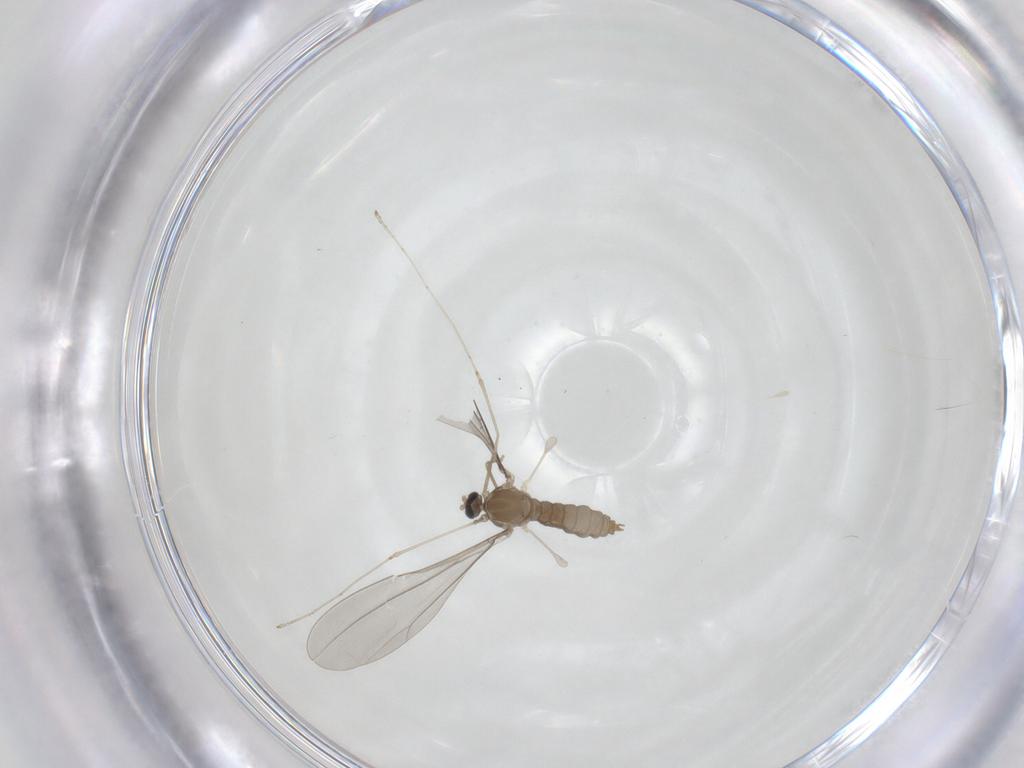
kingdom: Animalia
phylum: Arthropoda
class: Insecta
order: Diptera
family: Cecidomyiidae
